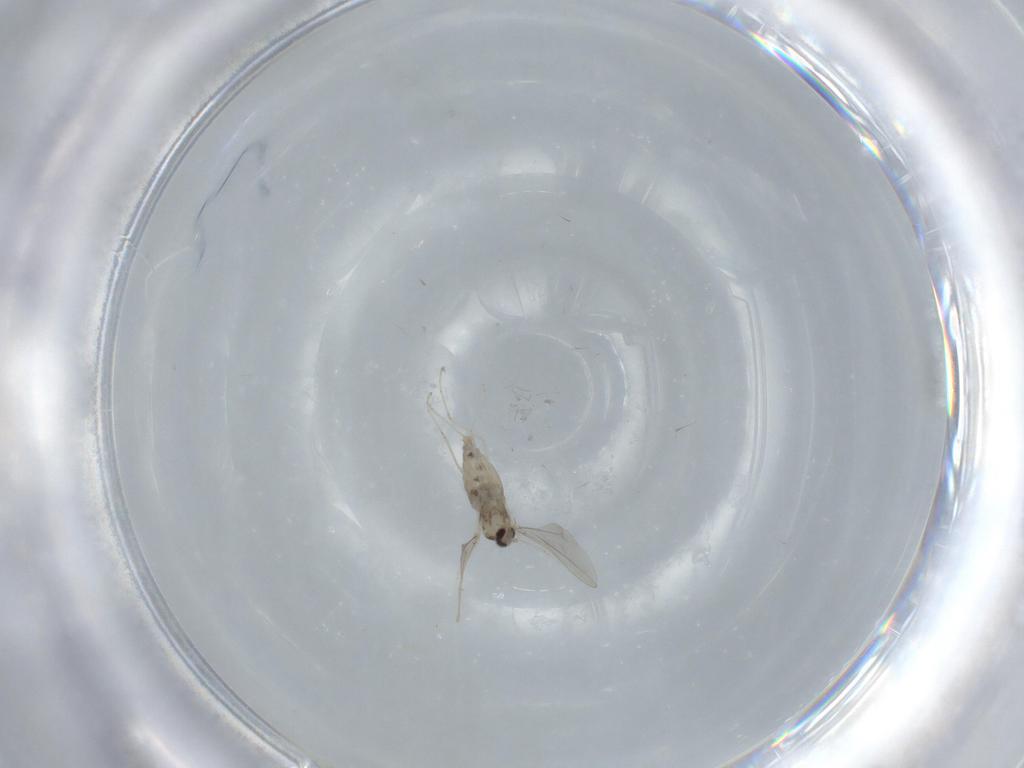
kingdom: Animalia
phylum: Arthropoda
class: Insecta
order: Diptera
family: Cecidomyiidae
